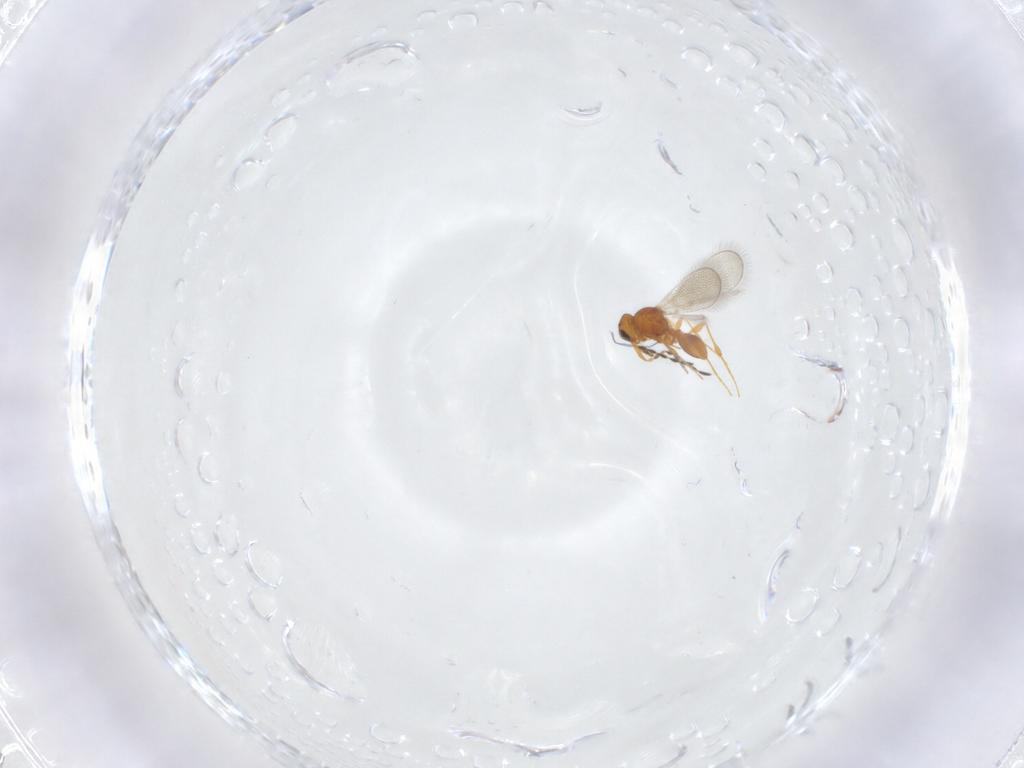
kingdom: Animalia
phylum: Arthropoda
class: Insecta
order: Hymenoptera
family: Platygastridae
